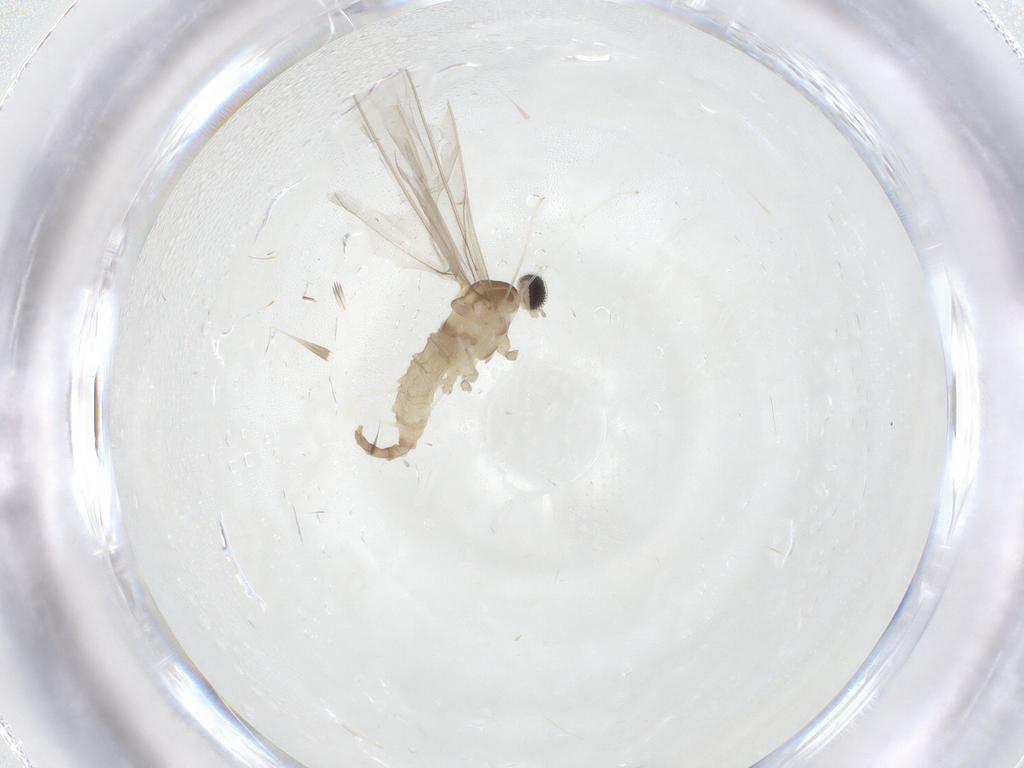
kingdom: Animalia
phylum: Arthropoda
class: Insecta
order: Diptera
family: Cecidomyiidae
